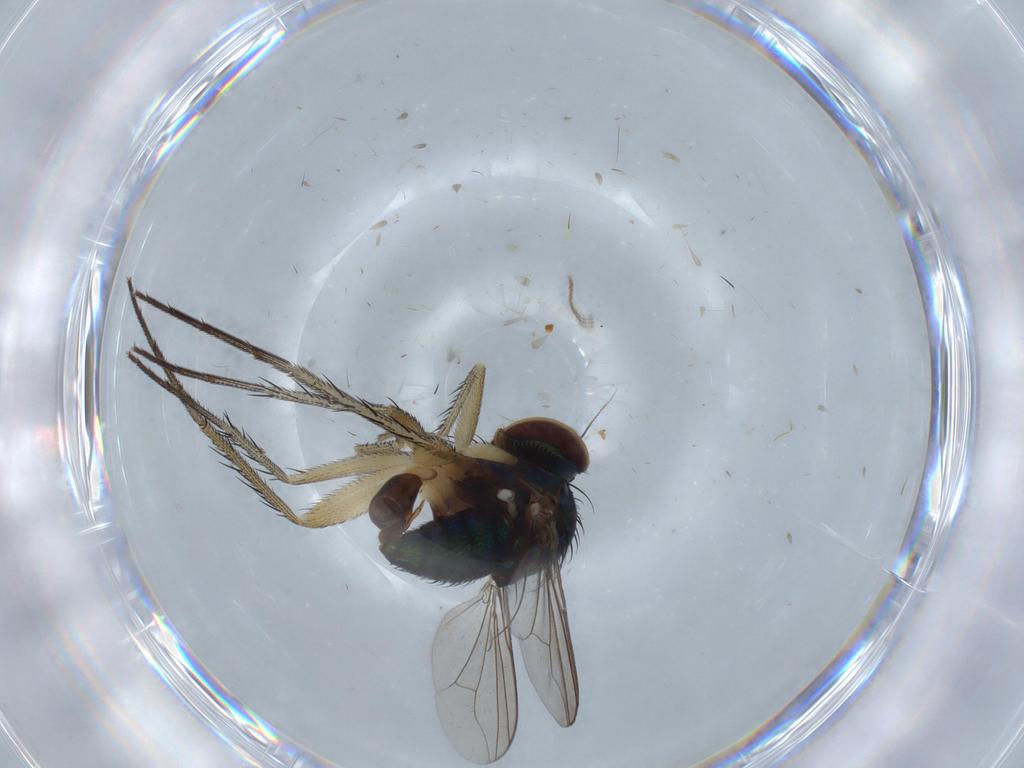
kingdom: Animalia
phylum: Arthropoda
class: Insecta
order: Diptera
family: Dolichopodidae
